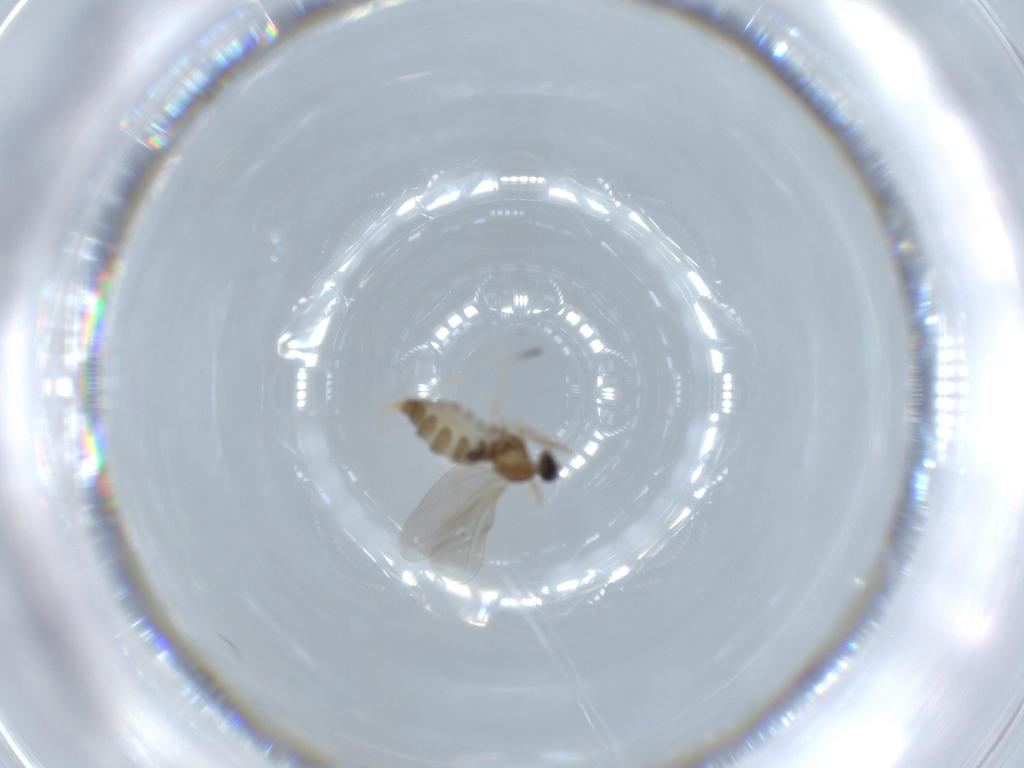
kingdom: Animalia
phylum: Arthropoda
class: Insecta
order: Diptera
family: Cecidomyiidae
